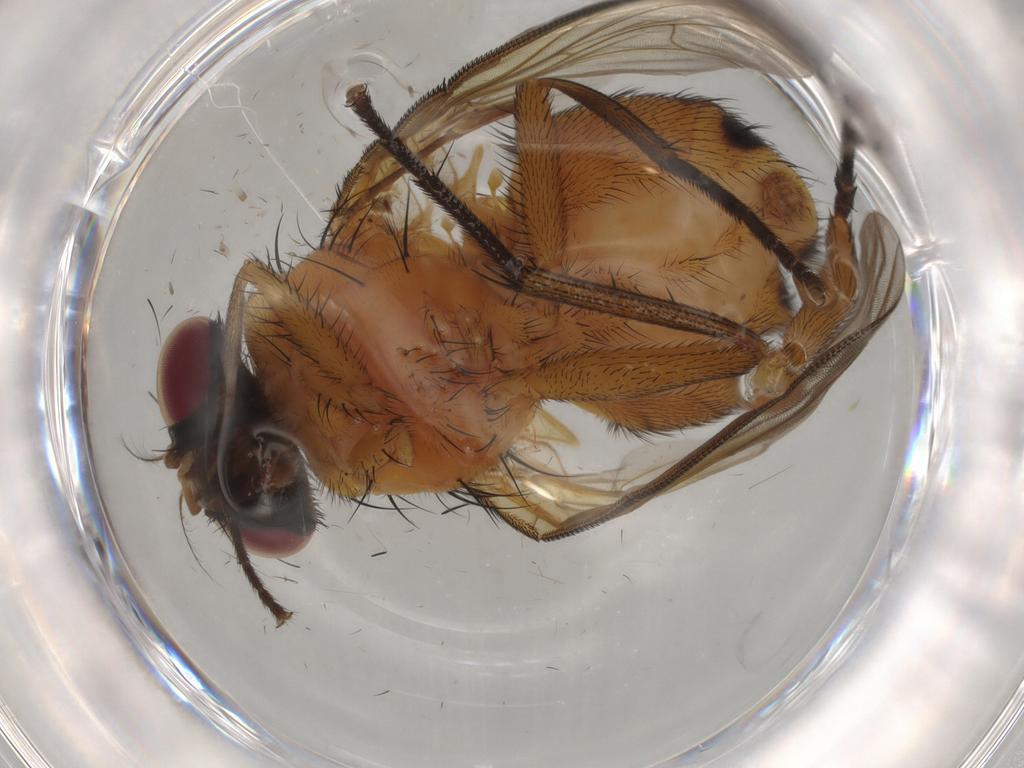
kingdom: Animalia
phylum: Arthropoda
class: Insecta
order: Diptera
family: Muscidae
